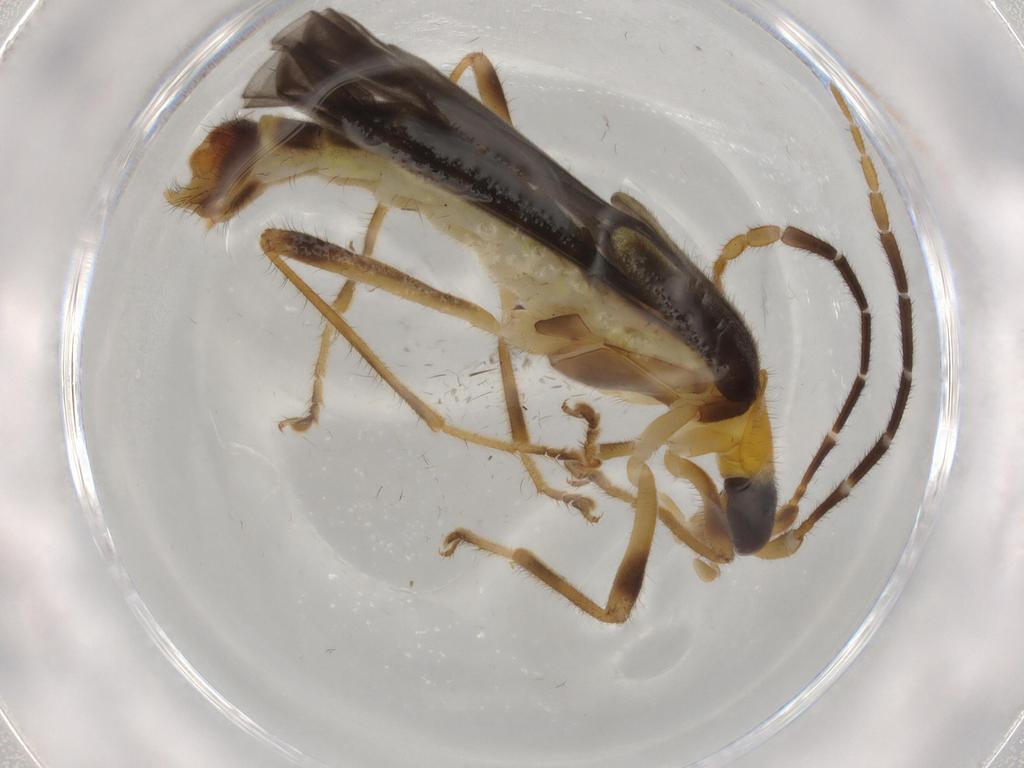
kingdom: Animalia
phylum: Arthropoda
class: Insecta
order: Coleoptera
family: Cantharidae
